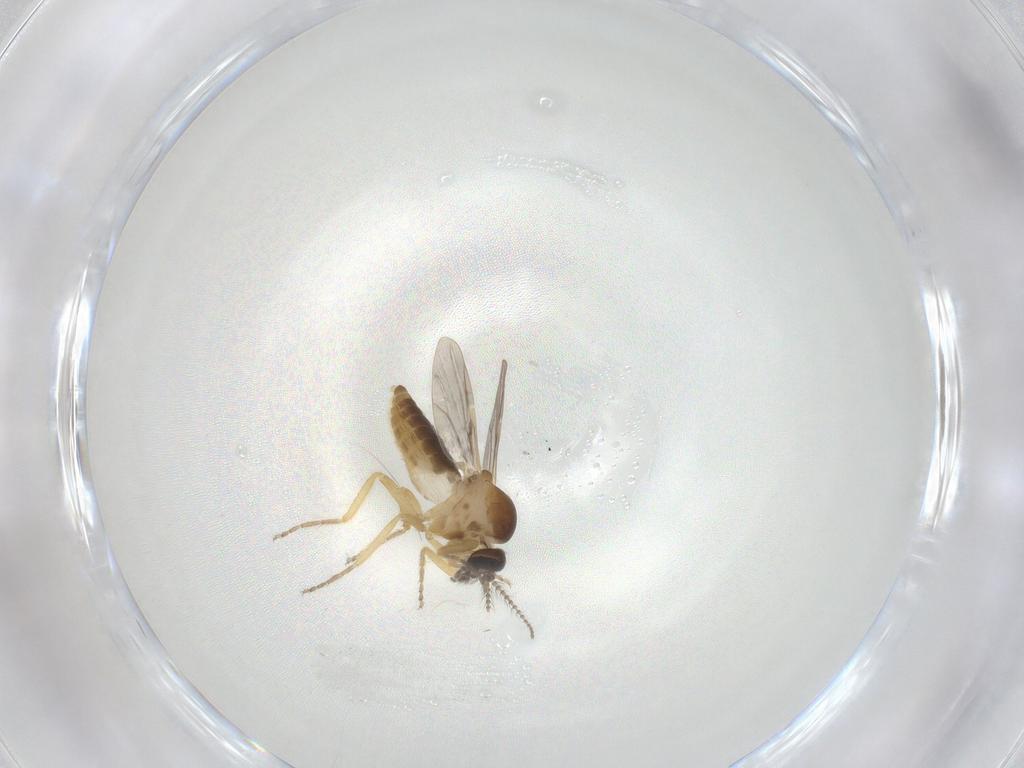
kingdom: Animalia
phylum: Arthropoda
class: Insecta
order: Diptera
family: Ceratopogonidae
